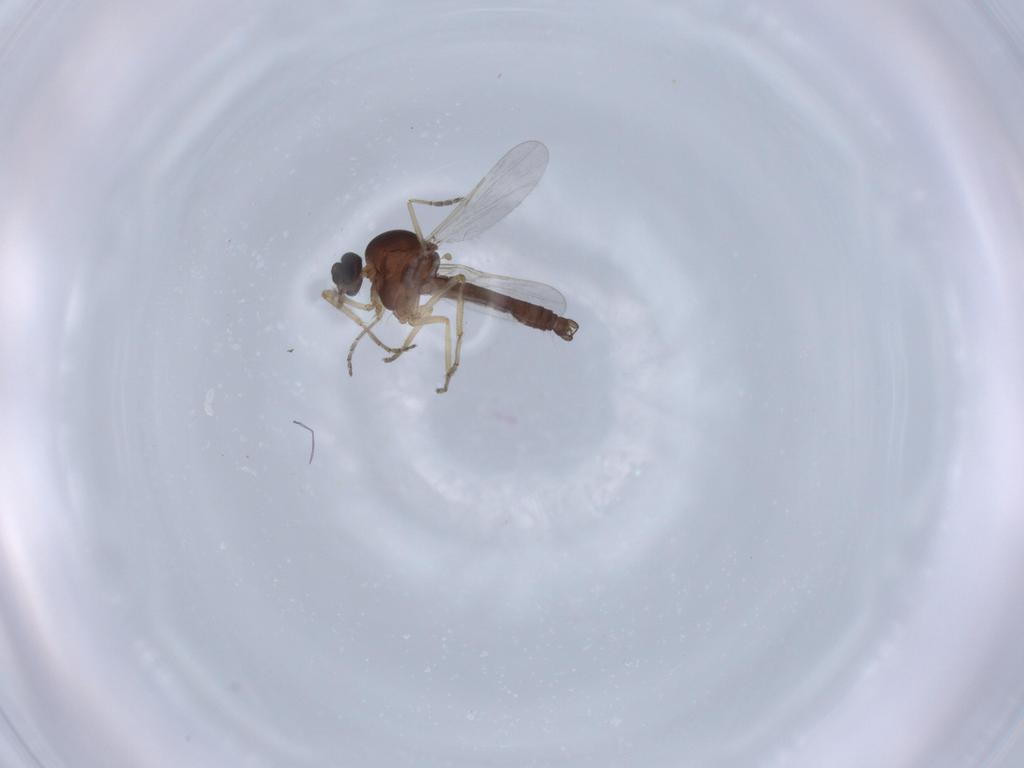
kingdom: Animalia
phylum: Arthropoda
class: Insecta
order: Diptera
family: Ceratopogonidae
